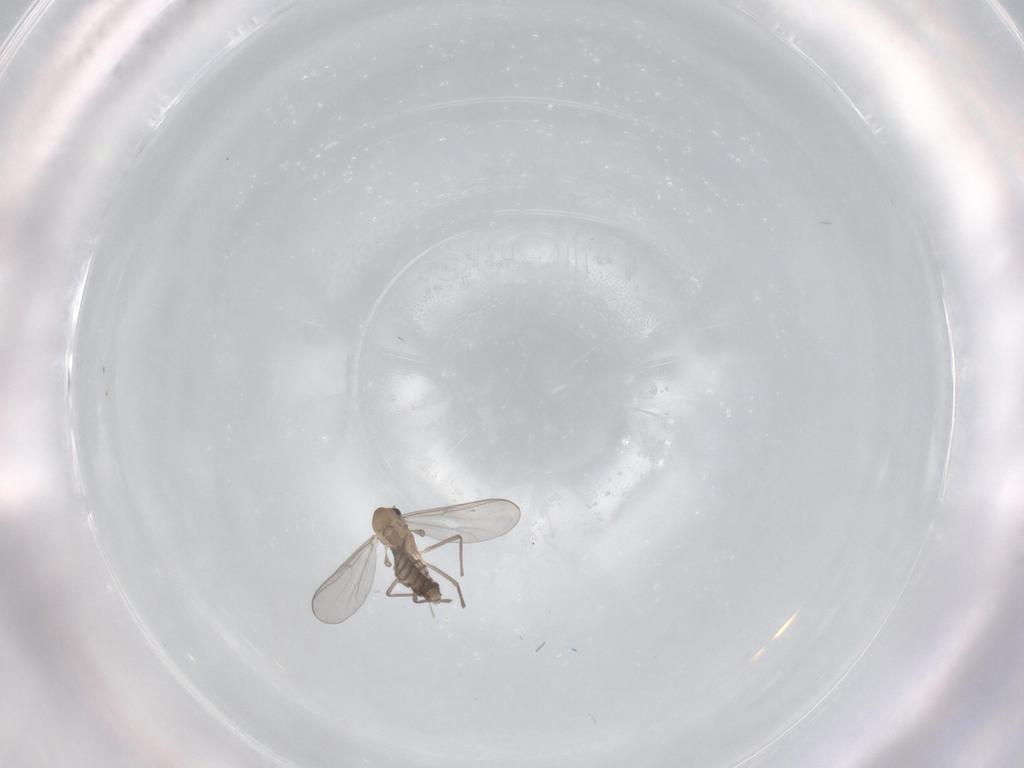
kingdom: Animalia
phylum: Arthropoda
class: Insecta
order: Diptera
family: Chironomidae
